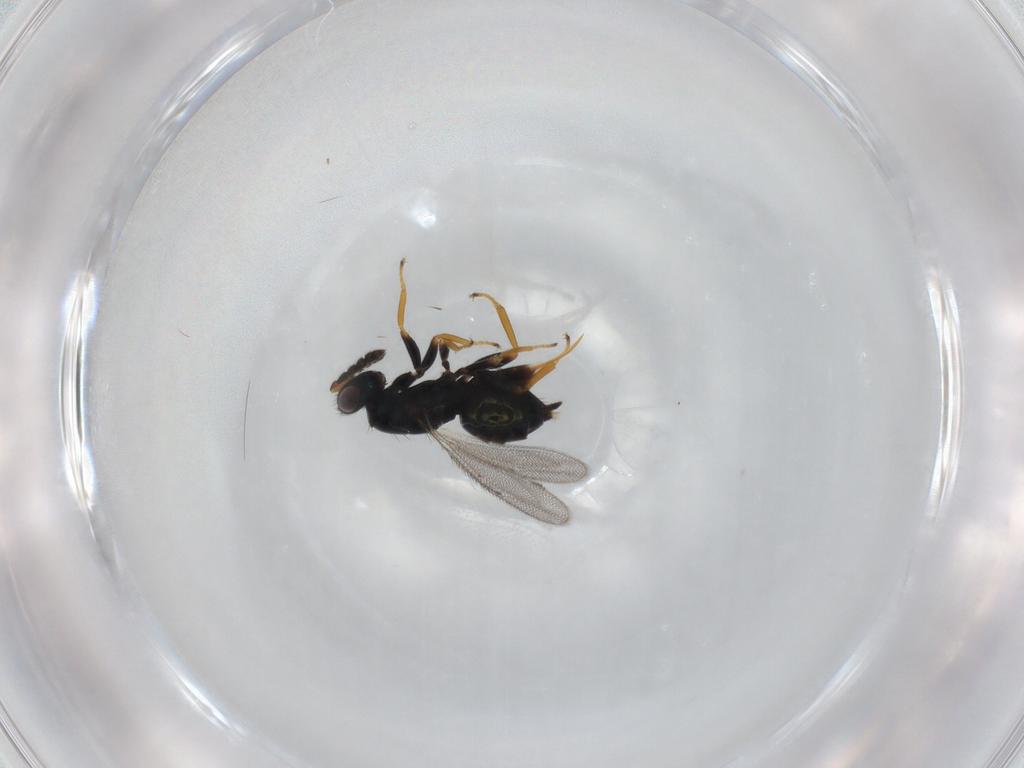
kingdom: Animalia
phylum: Arthropoda
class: Insecta
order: Hymenoptera
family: Eulophidae
